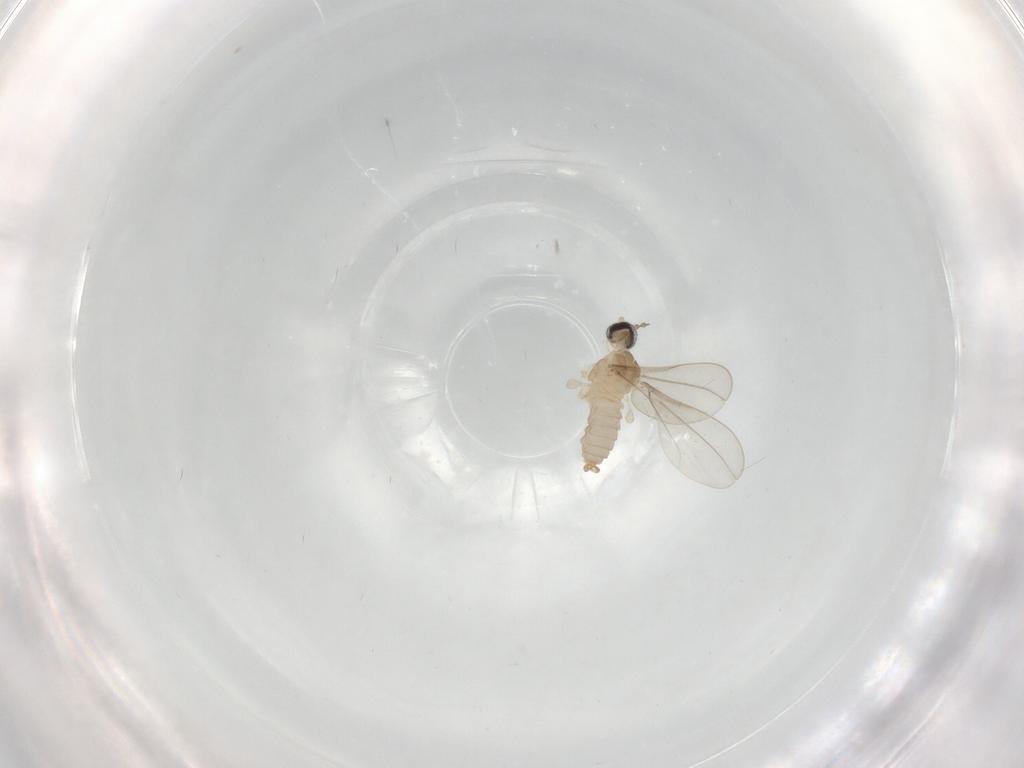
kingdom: Animalia
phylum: Arthropoda
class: Insecta
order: Diptera
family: Cecidomyiidae
